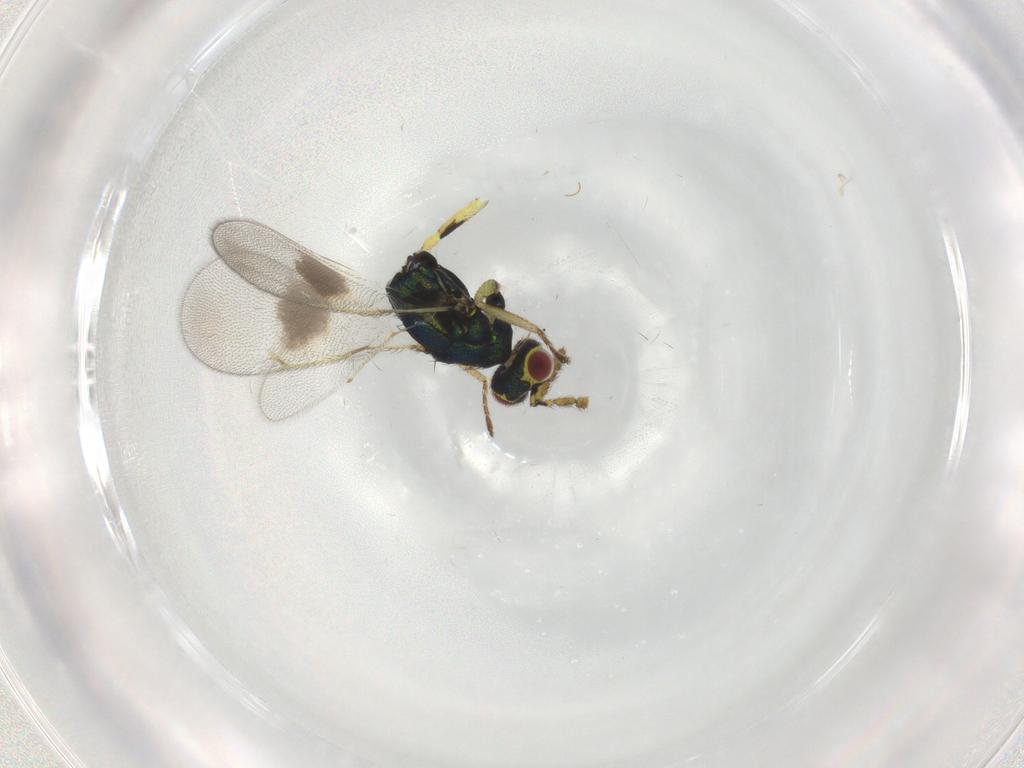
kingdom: Animalia
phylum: Arthropoda
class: Insecta
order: Hymenoptera
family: Eulophidae
